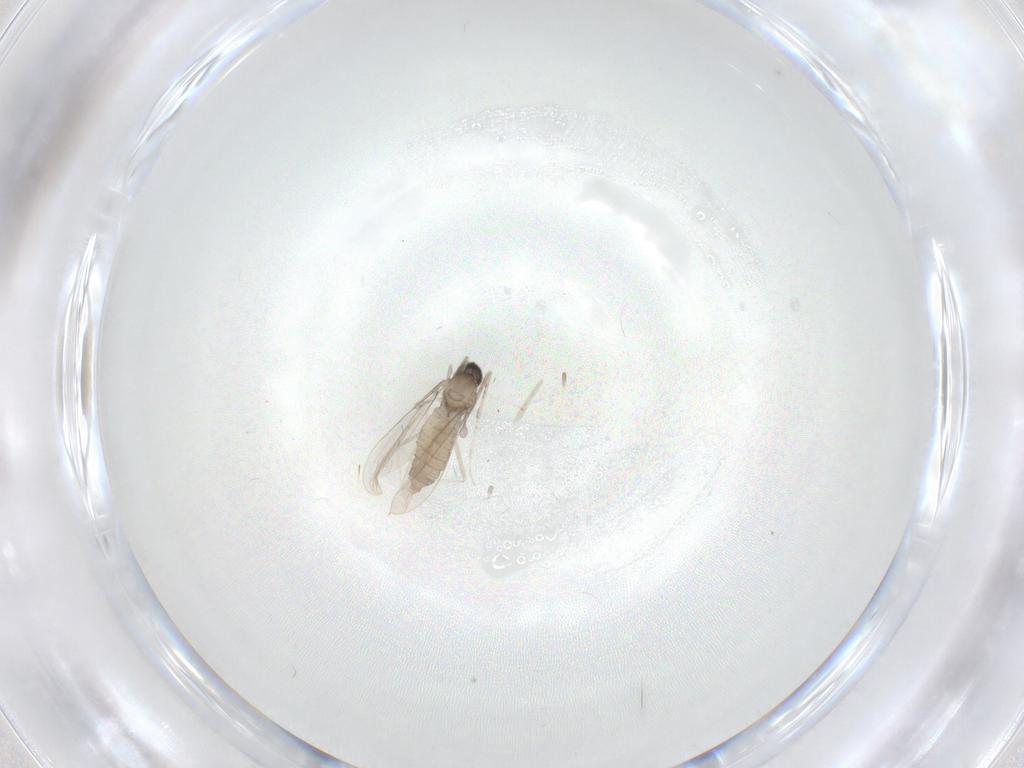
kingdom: Animalia
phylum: Arthropoda
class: Insecta
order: Diptera
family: Cecidomyiidae
